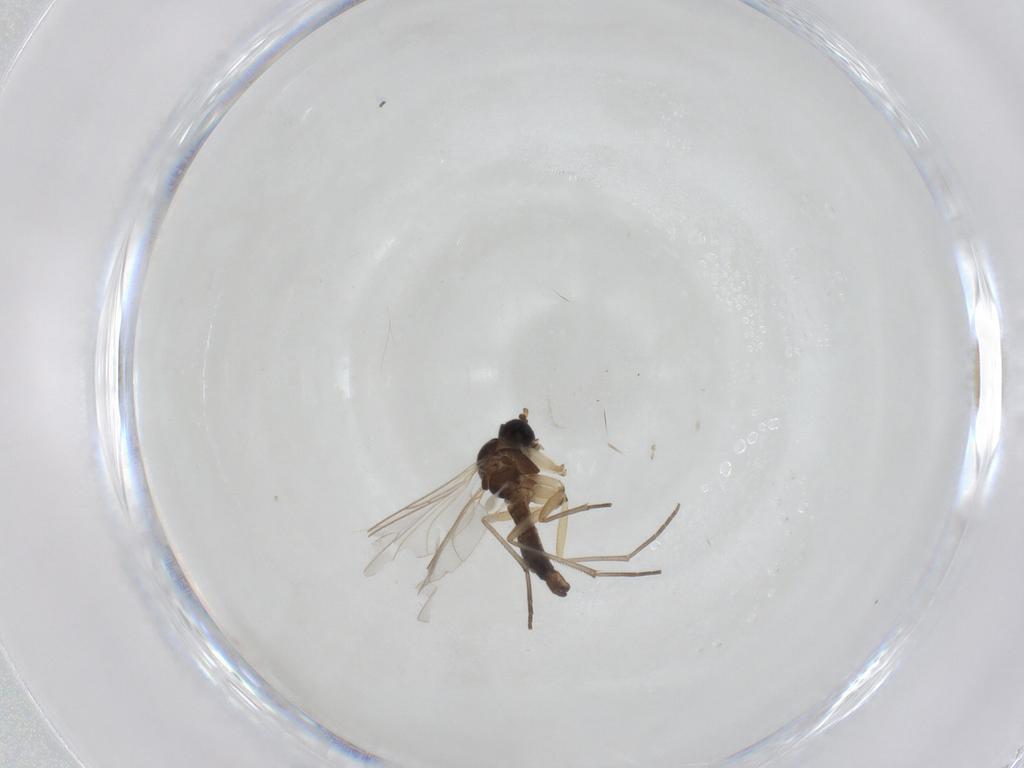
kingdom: Animalia
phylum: Arthropoda
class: Insecta
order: Diptera
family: Sciaridae
